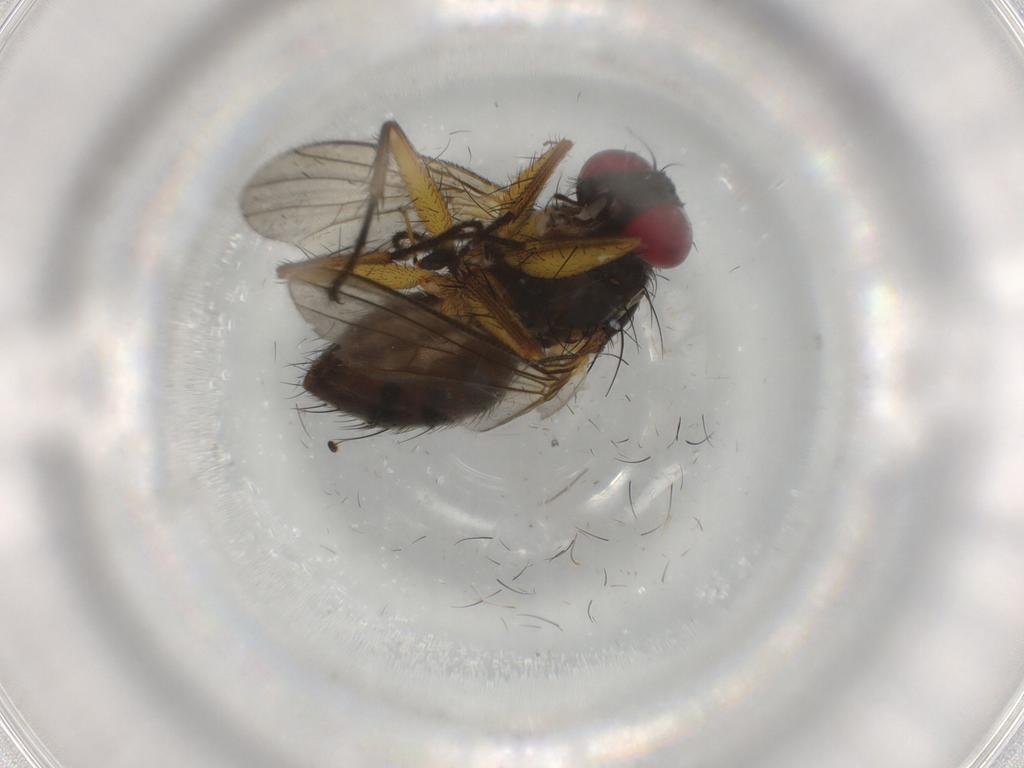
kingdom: Animalia
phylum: Arthropoda
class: Insecta
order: Diptera
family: Muscidae
